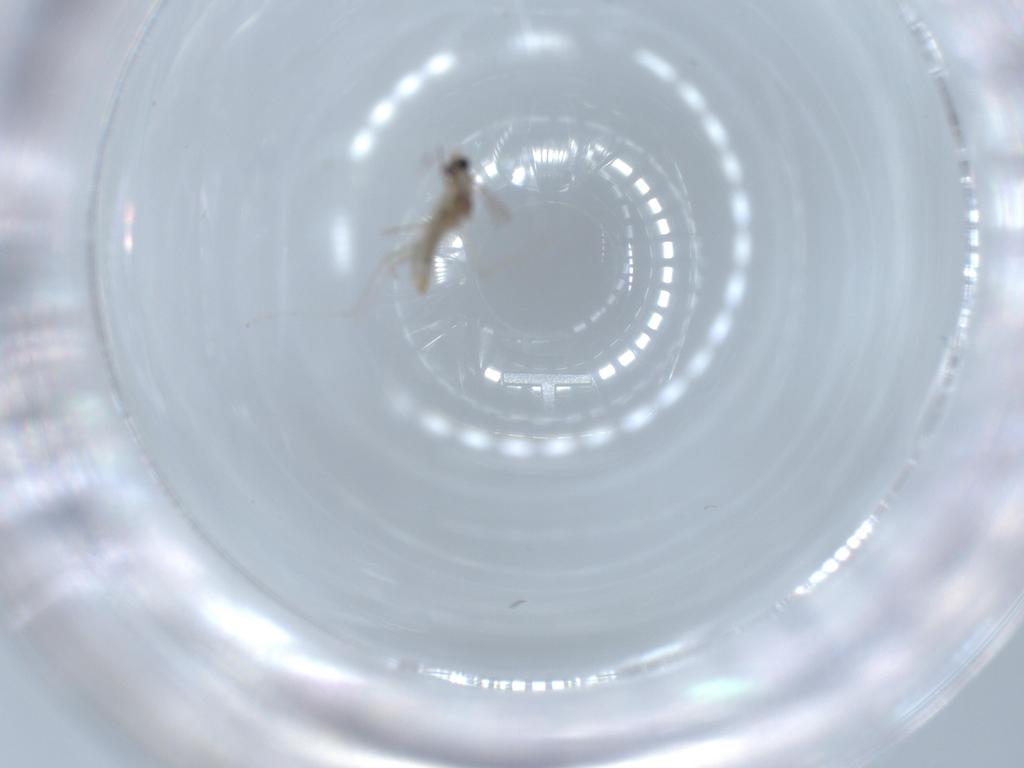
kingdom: Animalia
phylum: Arthropoda
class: Insecta
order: Diptera
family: Cecidomyiidae
